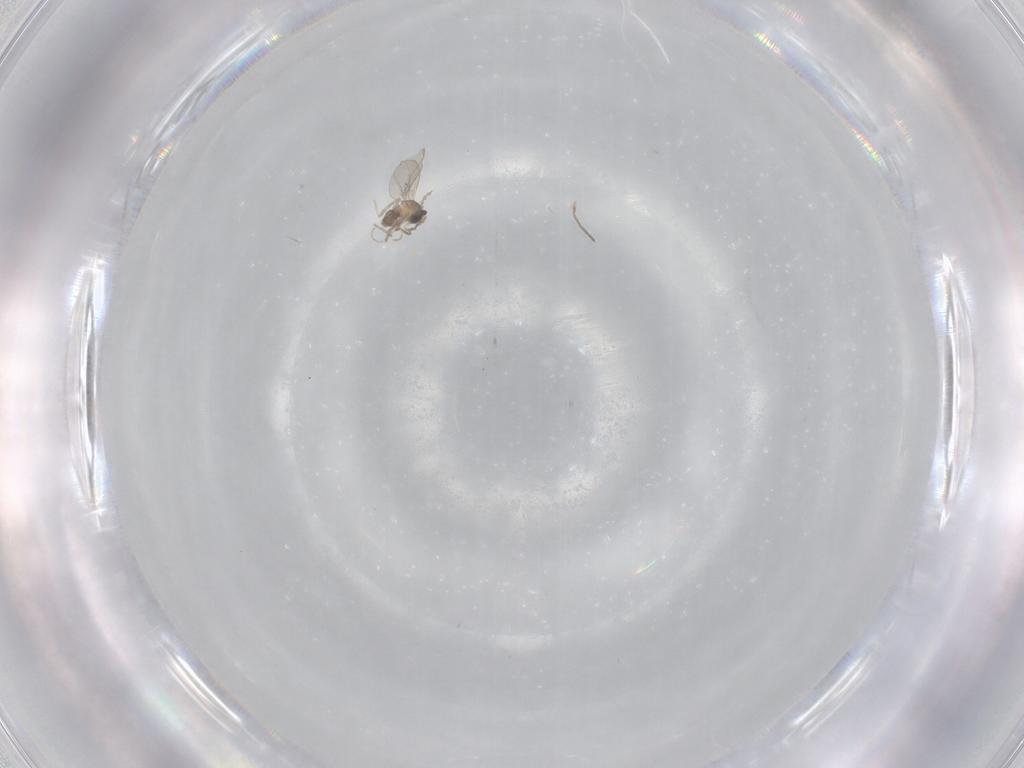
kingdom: Animalia
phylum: Arthropoda
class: Insecta
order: Diptera
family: Cecidomyiidae
